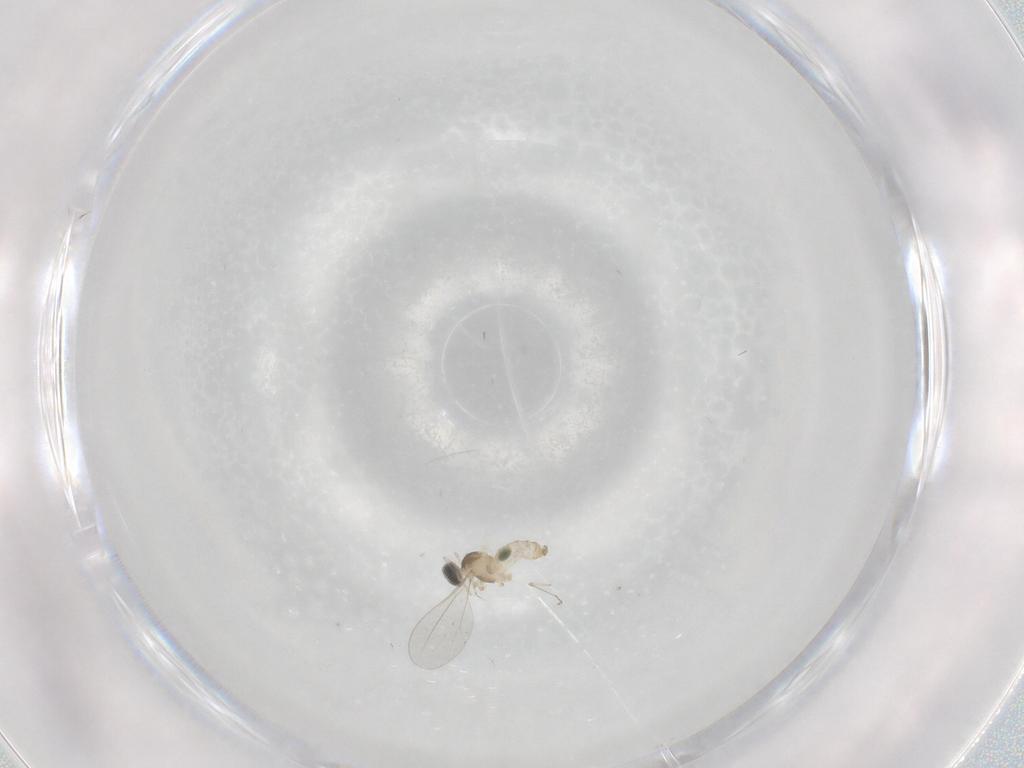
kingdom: Animalia
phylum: Arthropoda
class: Insecta
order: Diptera
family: Cecidomyiidae
